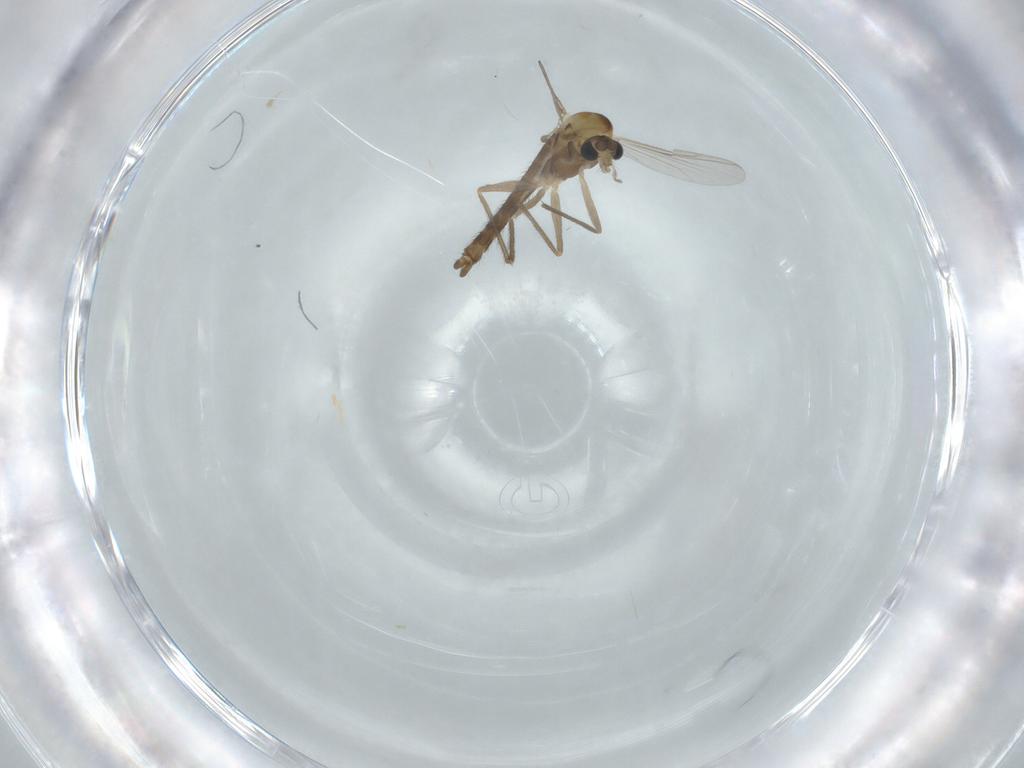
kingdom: Animalia
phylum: Arthropoda
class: Insecta
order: Diptera
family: Chironomidae
